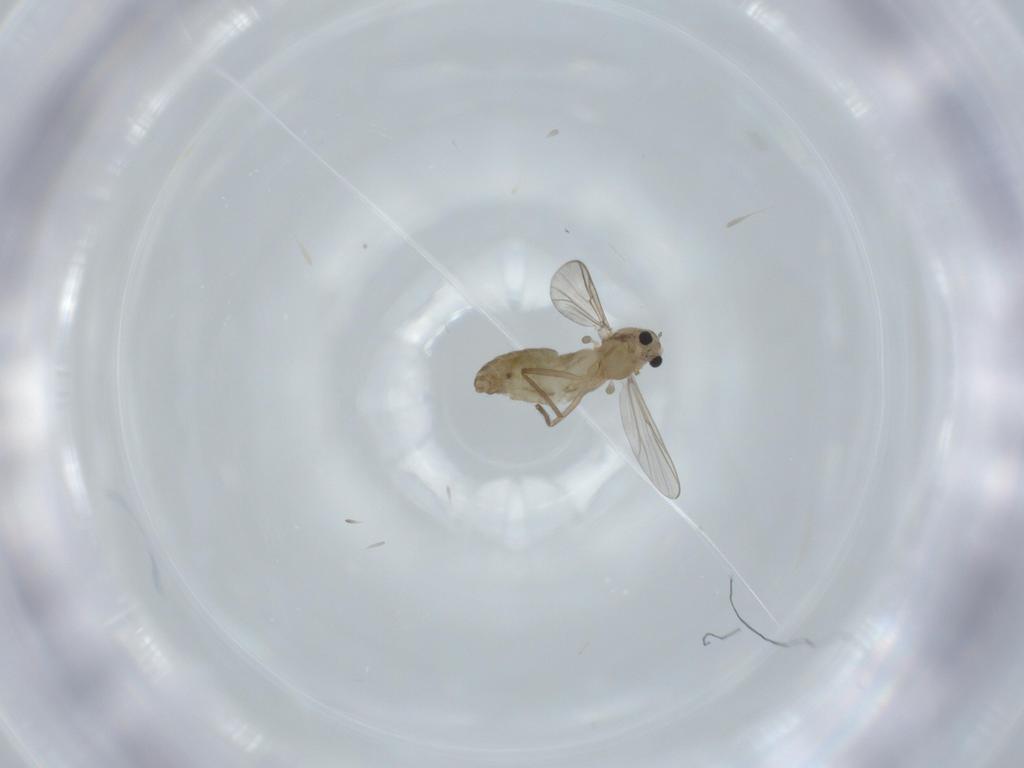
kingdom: Animalia
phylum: Arthropoda
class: Insecta
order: Diptera
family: Chironomidae
